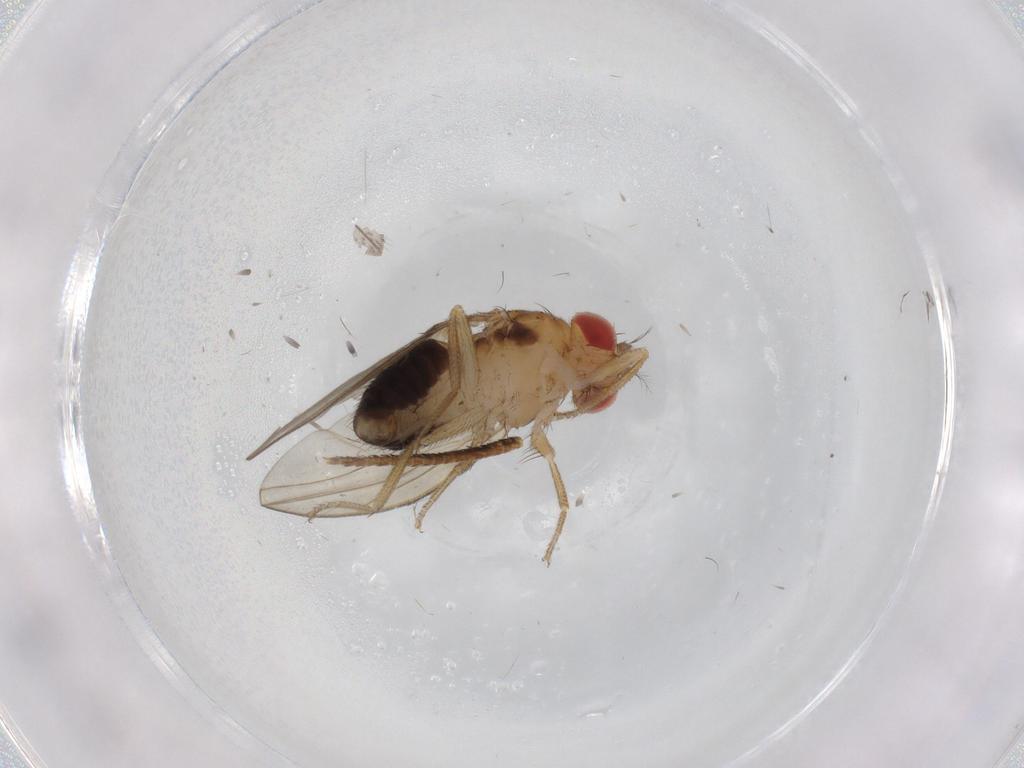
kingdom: Animalia
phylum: Arthropoda
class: Insecta
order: Diptera
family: Drosophilidae
